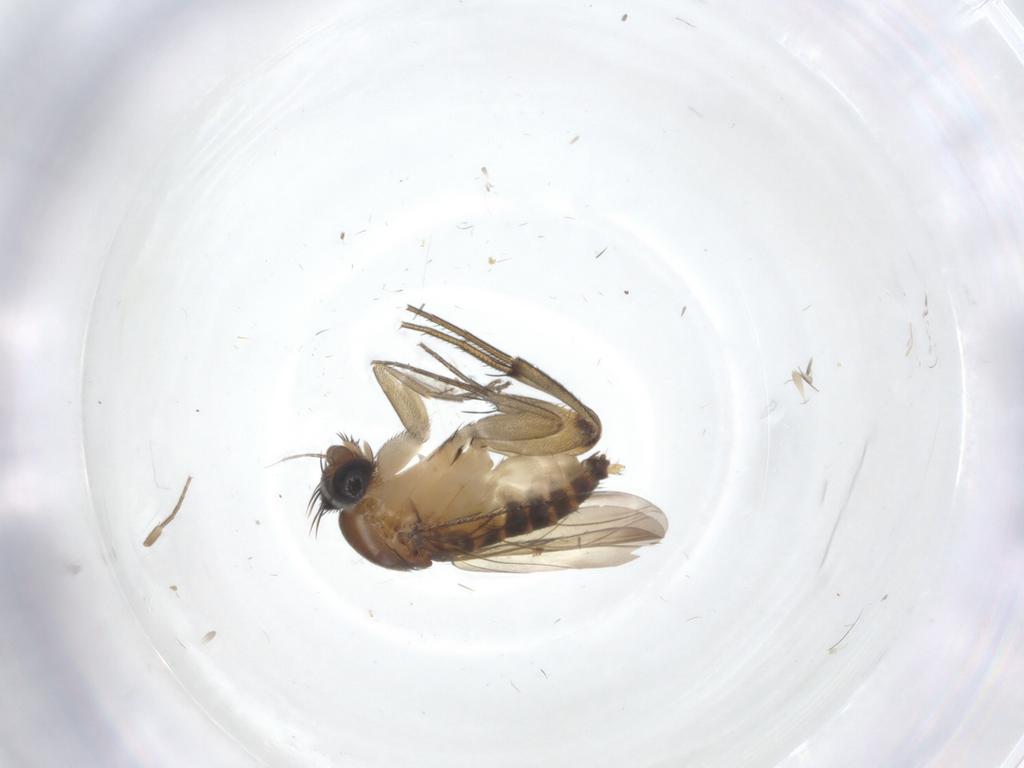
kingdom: Animalia
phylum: Arthropoda
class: Insecta
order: Diptera
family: Phoridae
